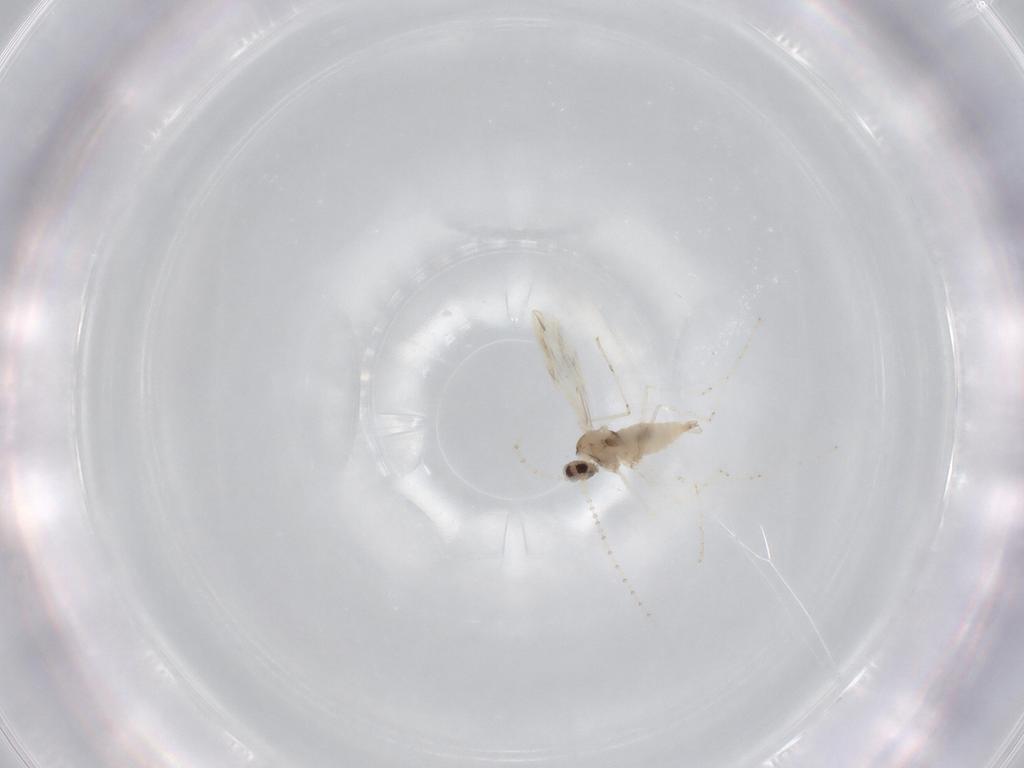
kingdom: Animalia
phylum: Arthropoda
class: Insecta
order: Diptera
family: Cecidomyiidae
